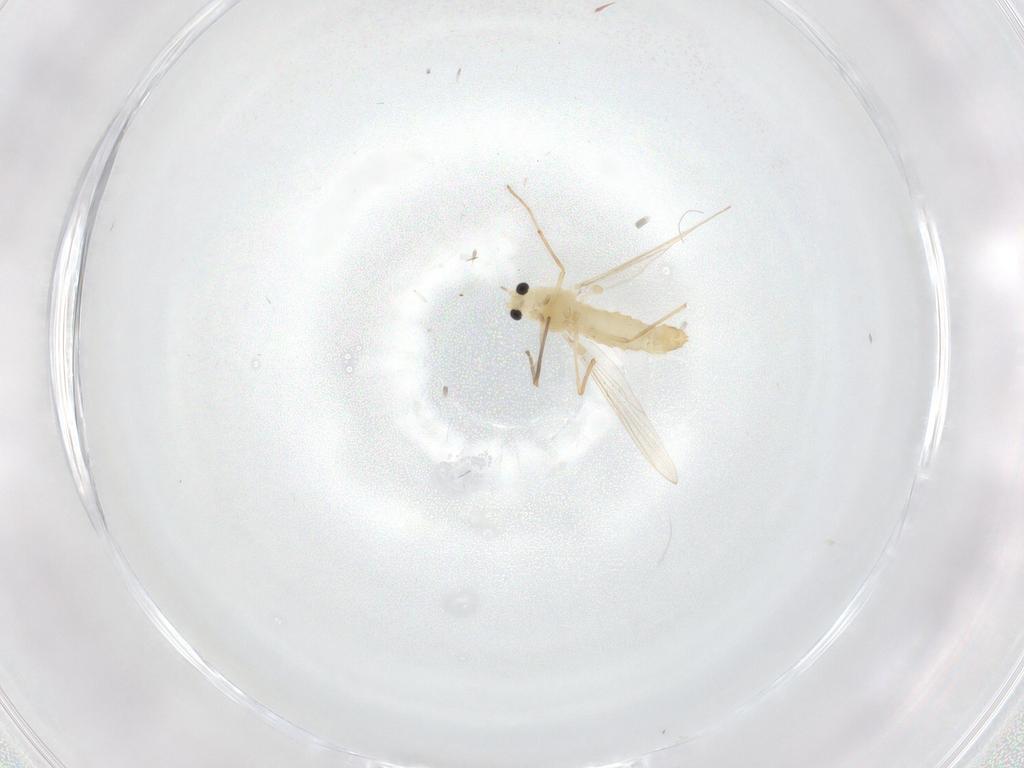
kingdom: Animalia
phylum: Arthropoda
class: Insecta
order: Diptera
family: Chironomidae
